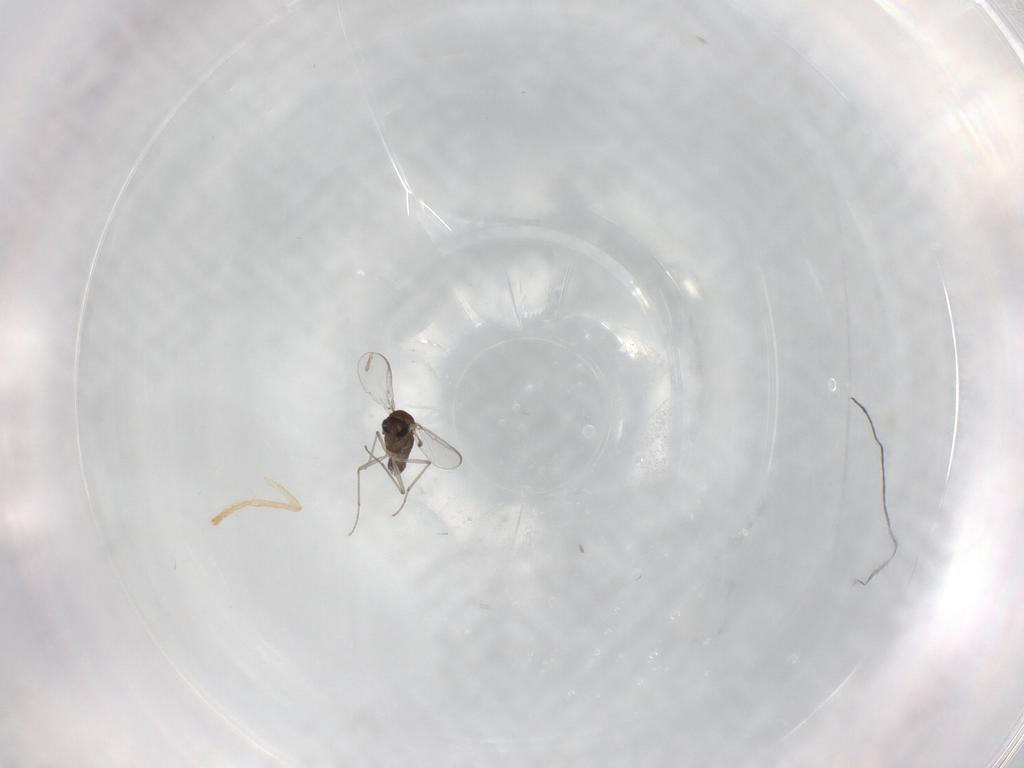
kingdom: Animalia
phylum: Arthropoda
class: Insecta
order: Diptera
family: Chironomidae
